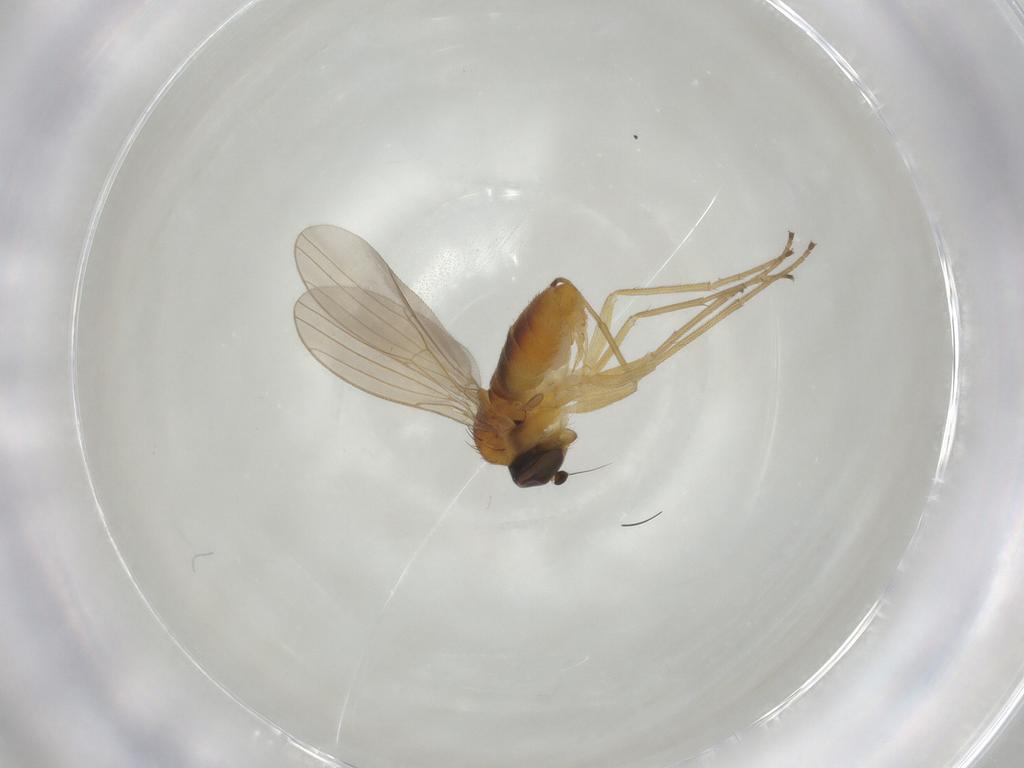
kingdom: Animalia
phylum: Arthropoda
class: Insecta
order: Diptera
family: Dolichopodidae
